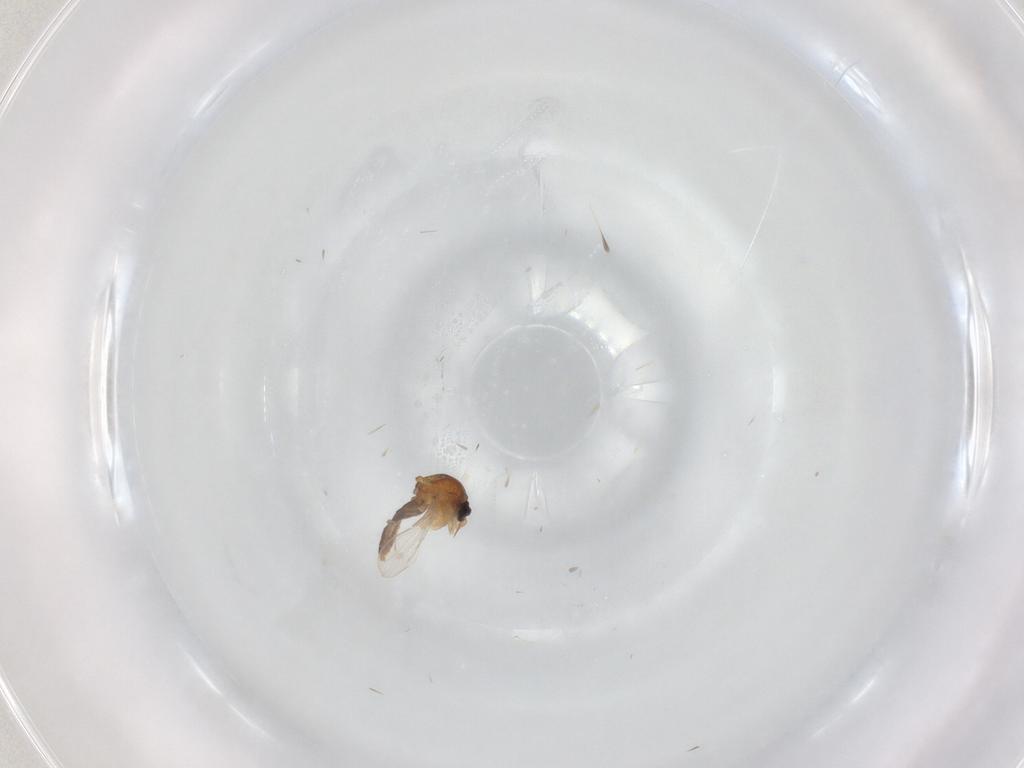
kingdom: Animalia
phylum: Arthropoda
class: Insecta
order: Diptera
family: Ceratopogonidae
